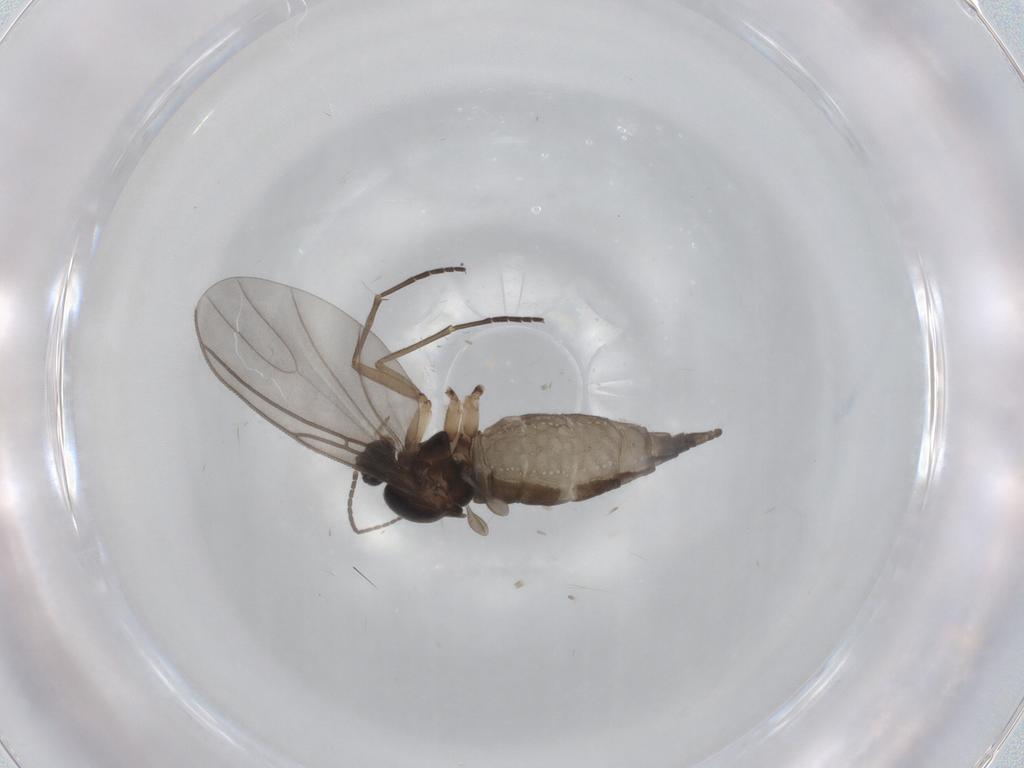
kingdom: Animalia
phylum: Arthropoda
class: Insecta
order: Diptera
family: Sciaridae
